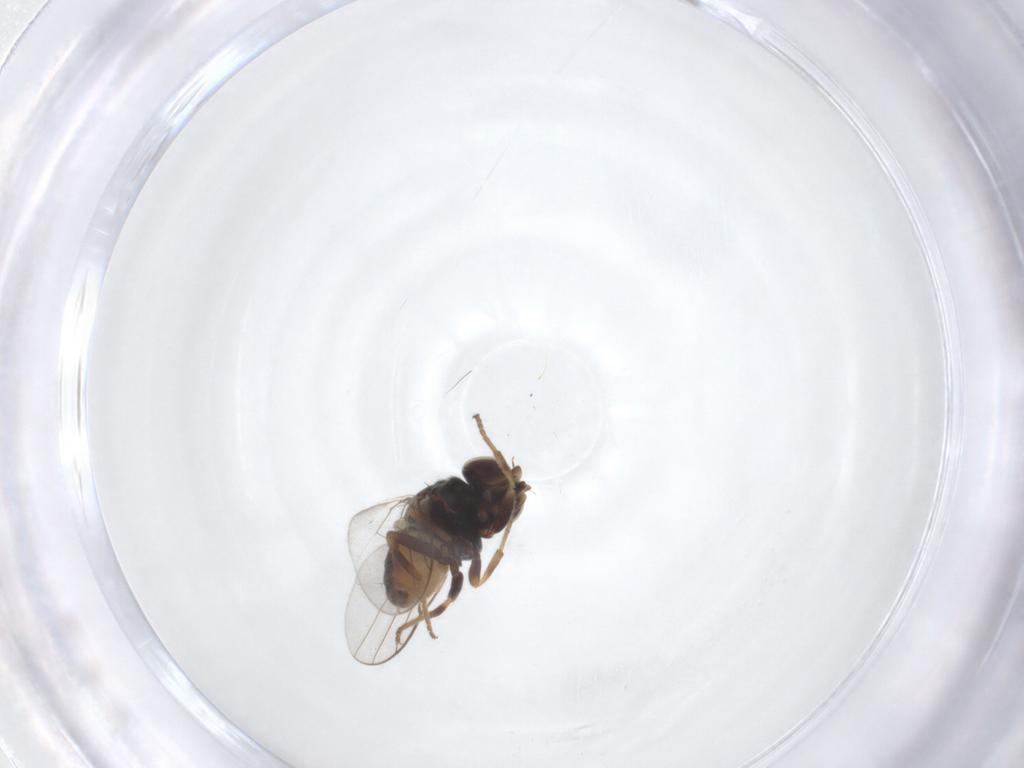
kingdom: Animalia
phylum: Arthropoda
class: Insecta
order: Diptera
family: Chloropidae
